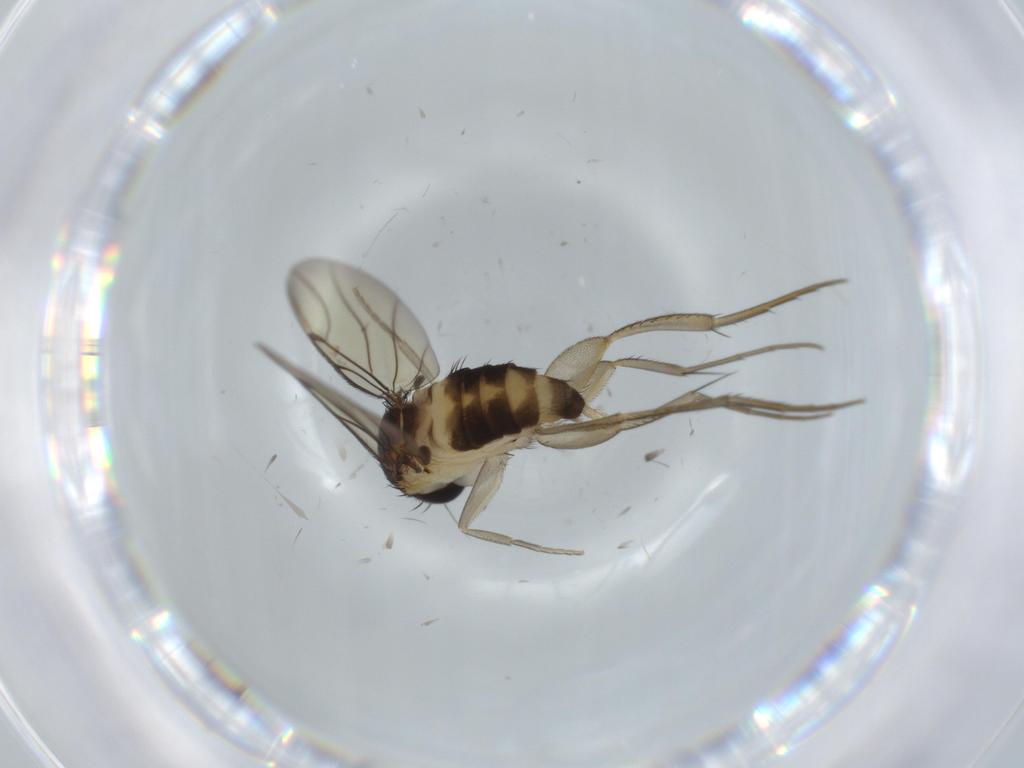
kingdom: Animalia
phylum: Arthropoda
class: Insecta
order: Diptera
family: Cecidomyiidae
